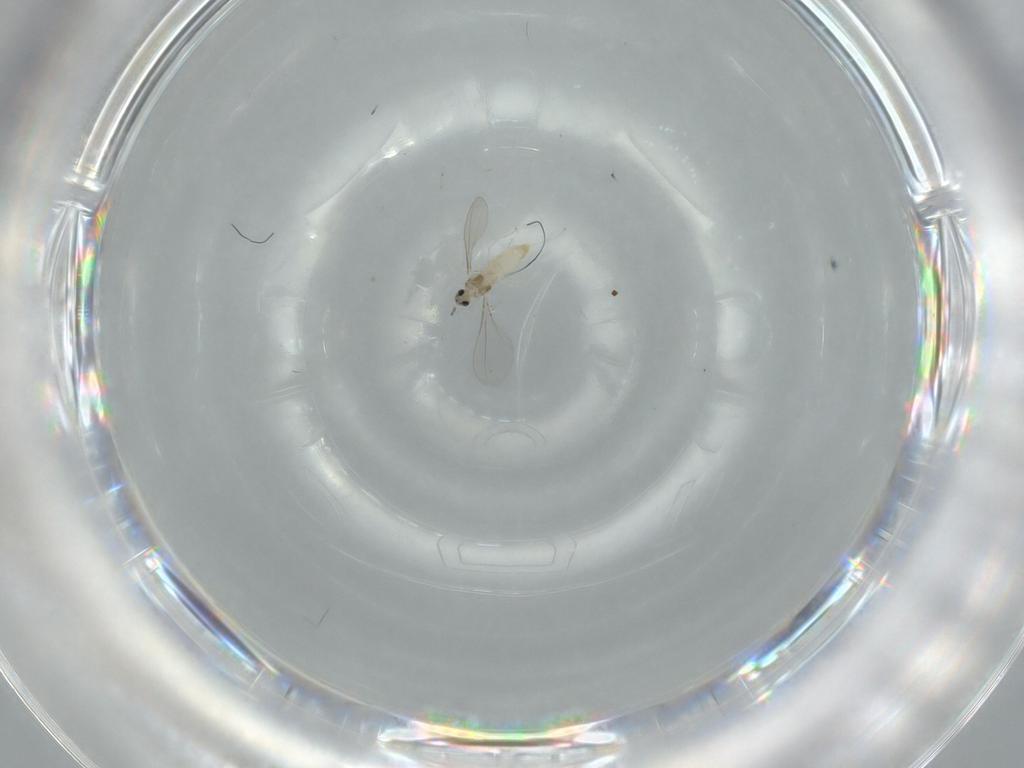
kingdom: Animalia
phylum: Arthropoda
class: Insecta
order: Diptera
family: Cecidomyiidae
